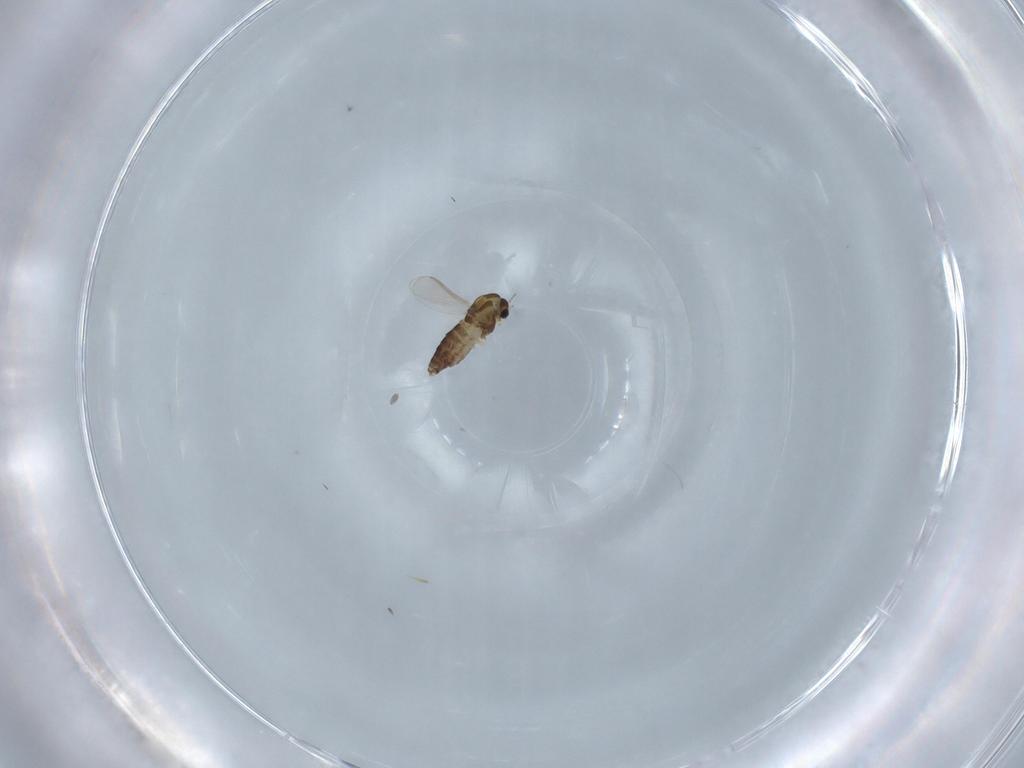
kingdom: Animalia
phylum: Arthropoda
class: Insecta
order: Diptera
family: Chironomidae
